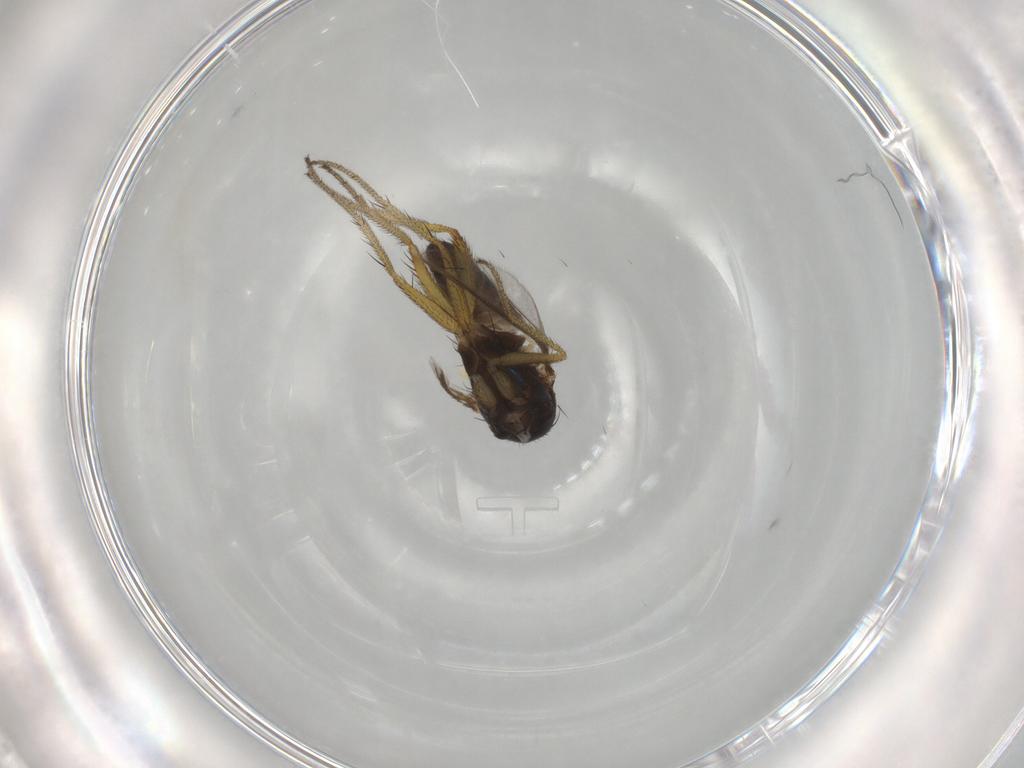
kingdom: Animalia
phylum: Arthropoda
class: Insecta
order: Diptera
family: Dolichopodidae
